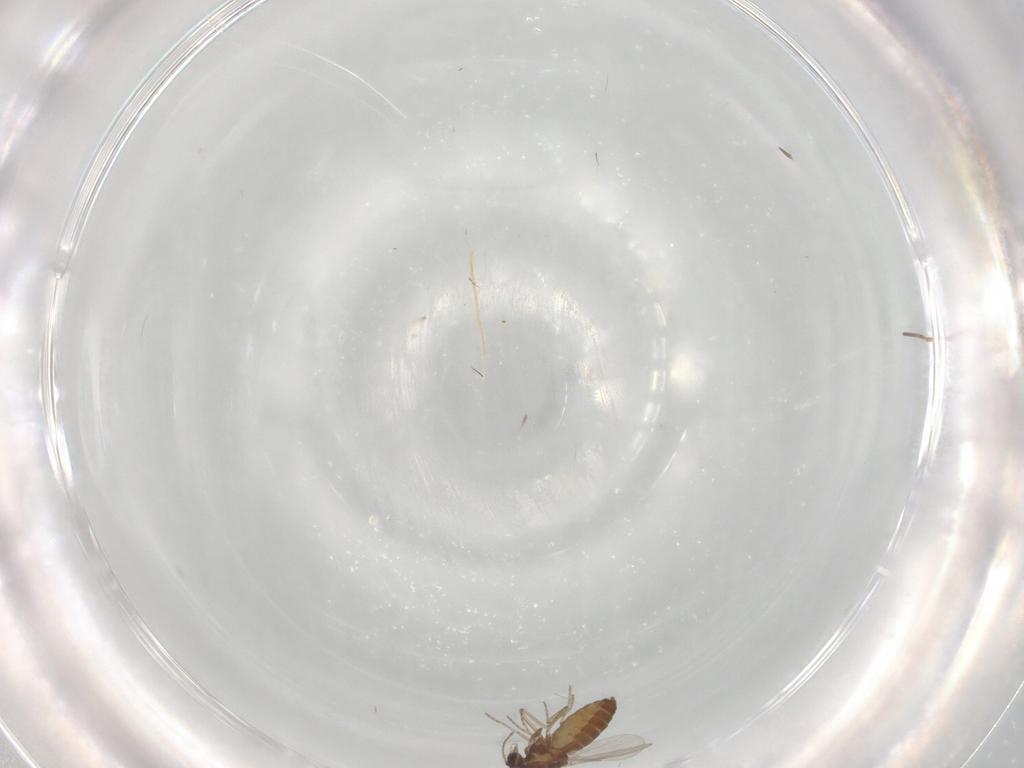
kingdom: Animalia
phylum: Arthropoda
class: Insecta
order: Diptera
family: Ceratopogonidae
